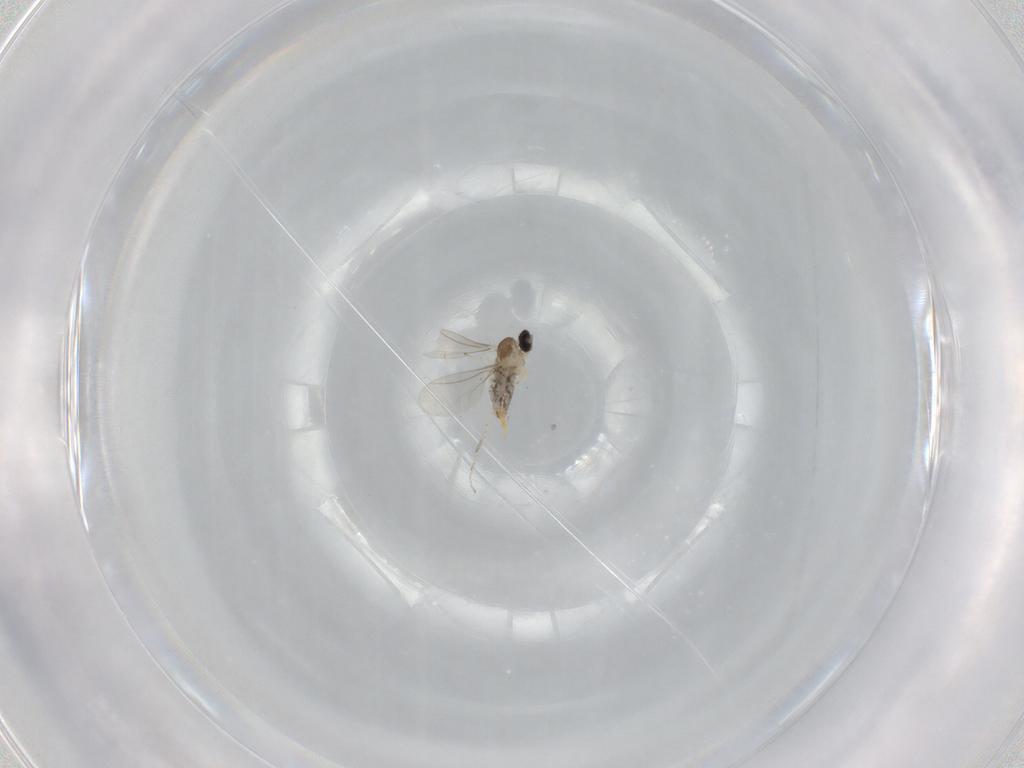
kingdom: Animalia
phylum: Arthropoda
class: Insecta
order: Diptera
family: Cecidomyiidae
